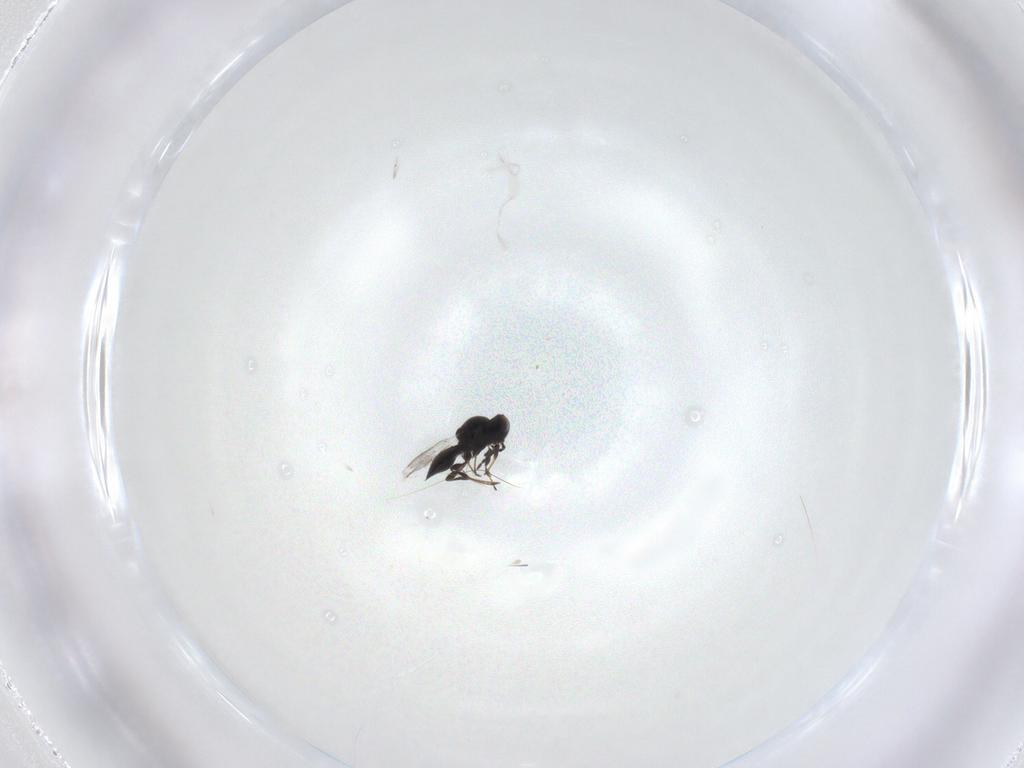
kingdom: Animalia
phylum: Arthropoda
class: Insecta
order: Hymenoptera
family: Platygastridae
